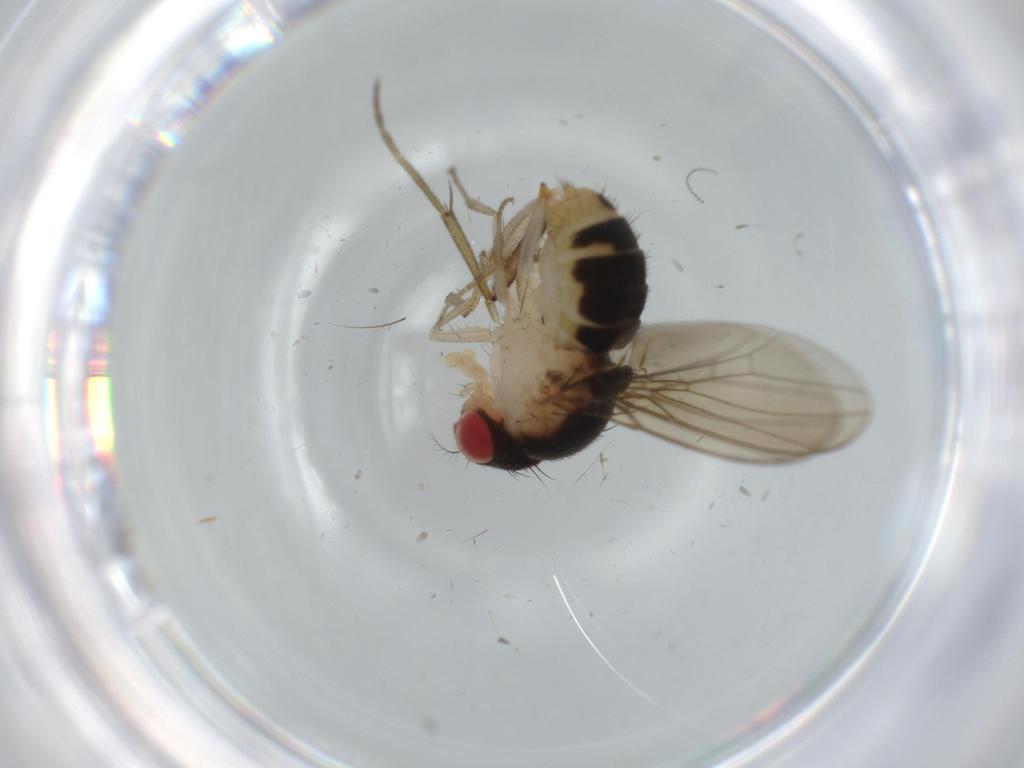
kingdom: Animalia
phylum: Arthropoda
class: Insecta
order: Diptera
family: Drosophilidae
